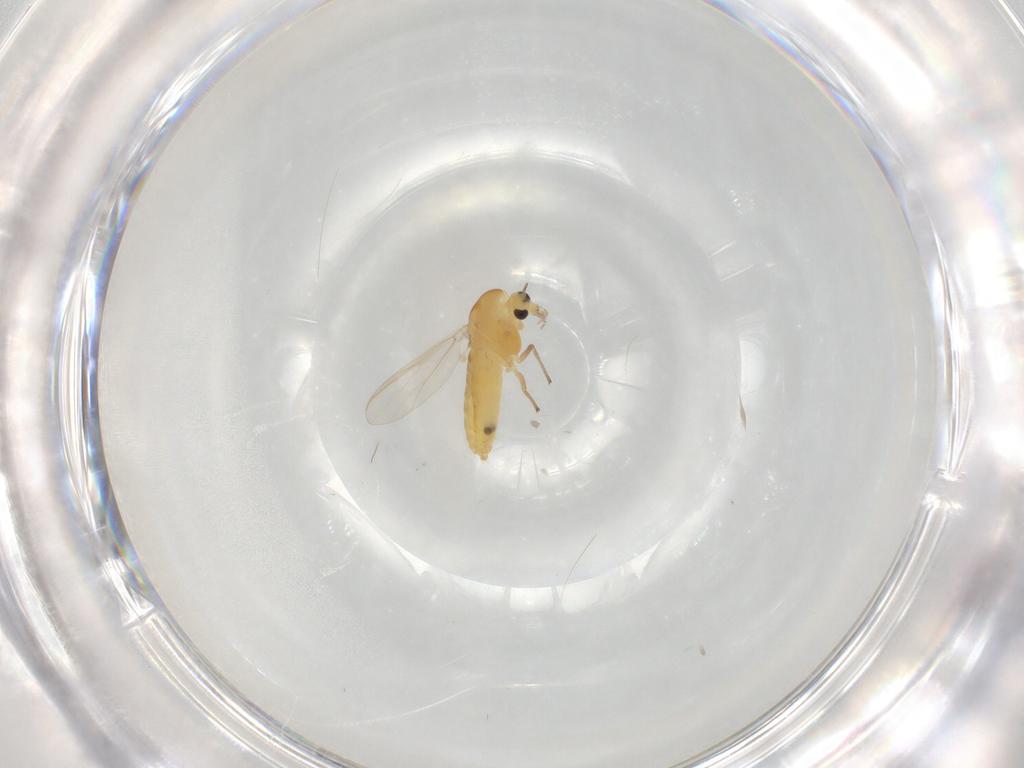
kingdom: Animalia
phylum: Arthropoda
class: Insecta
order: Diptera
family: Chironomidae
